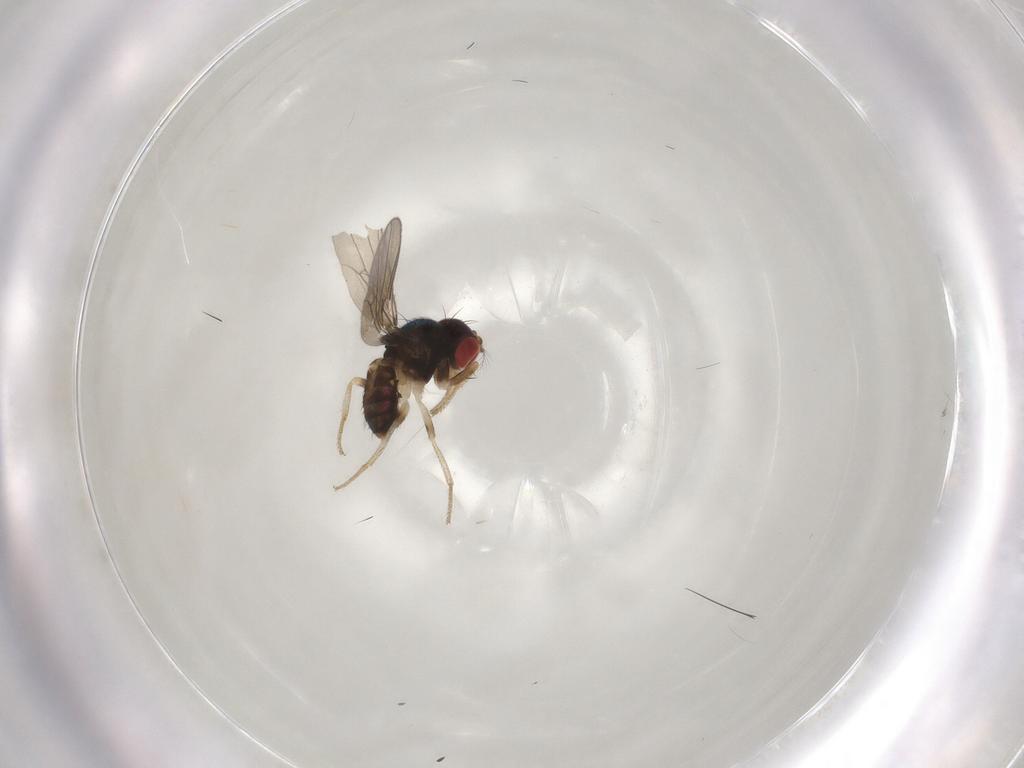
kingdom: Animalia
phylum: Arthropoda
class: Insecta
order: Diptera
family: Drosophilidae
